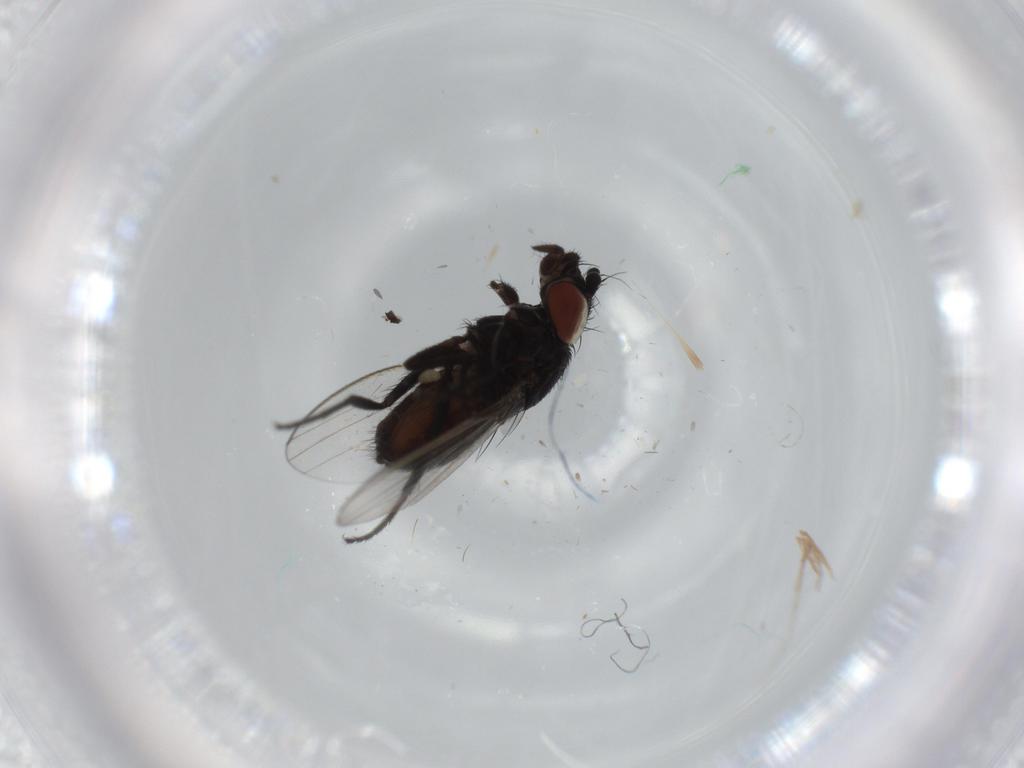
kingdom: Animalia
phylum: Arthropoda
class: Insecta
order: Diptera
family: Milichiidae
